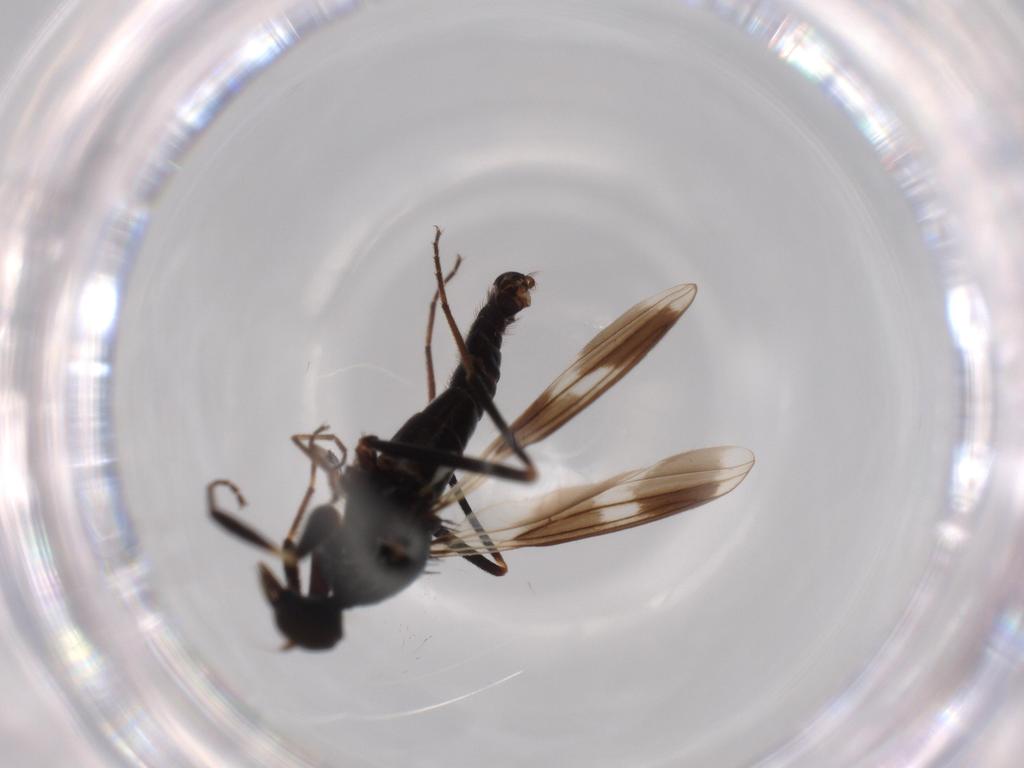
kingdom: Animalia
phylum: Arthropoda
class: Insecta
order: Diptera
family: Hybotidae
